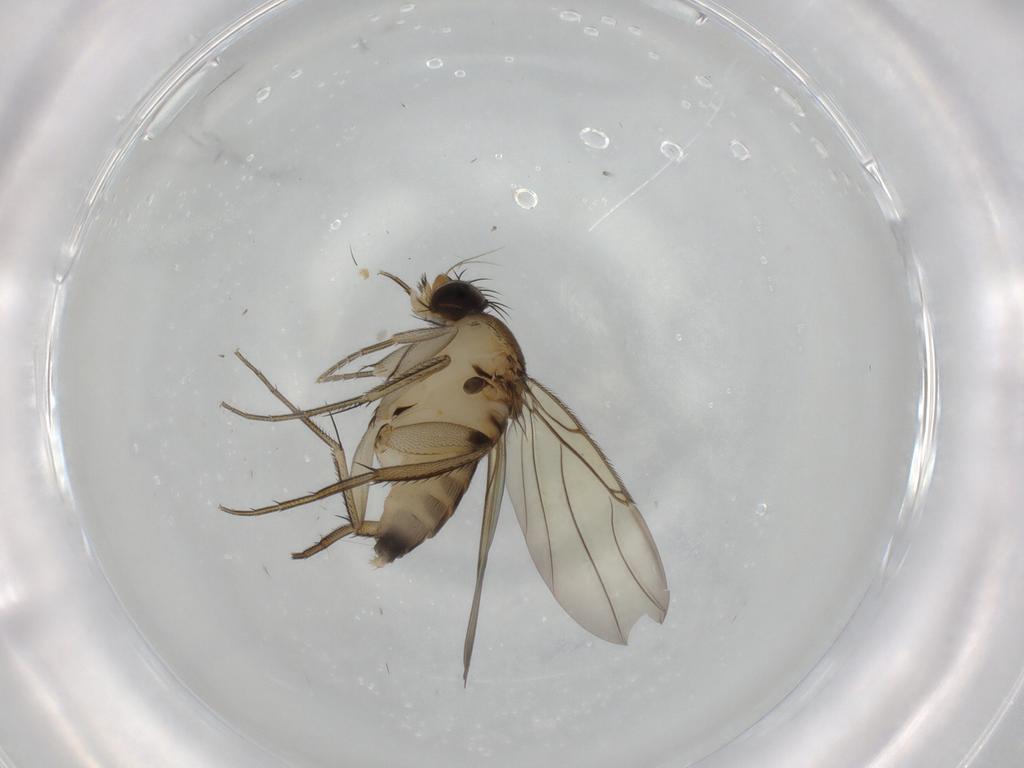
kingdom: Animalia
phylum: Arthropoda
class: Insecta
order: Diptera
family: Phoridae
